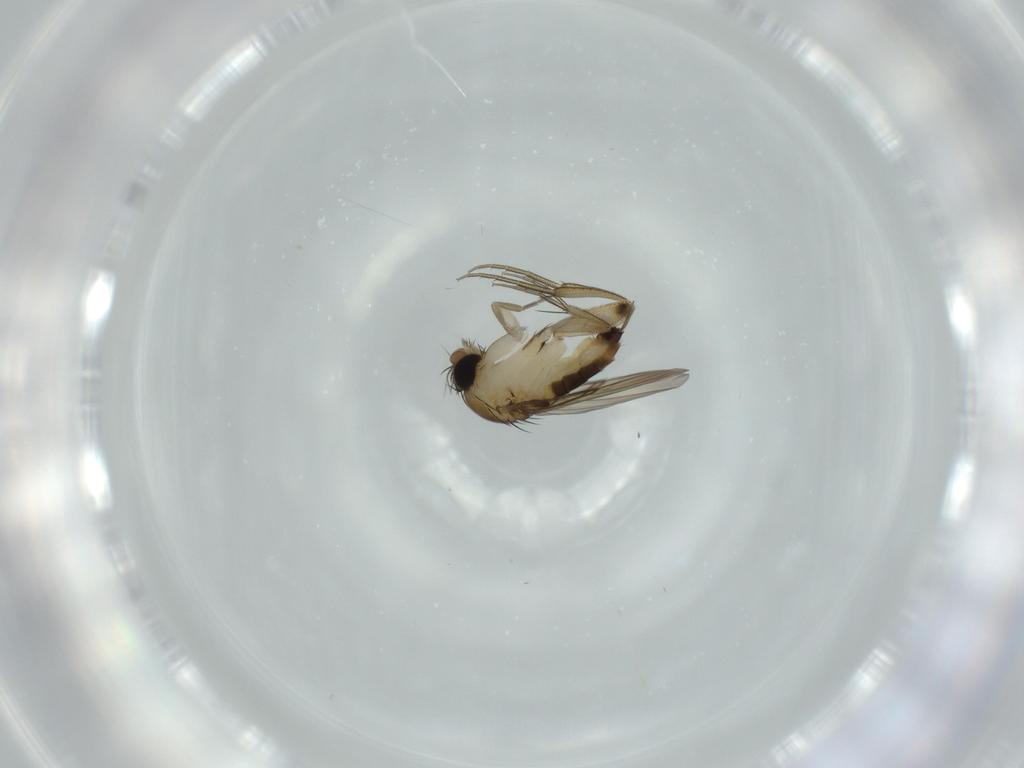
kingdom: Animalia
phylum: Arthropoda
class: Insecta
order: Diptera
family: Phoridae
